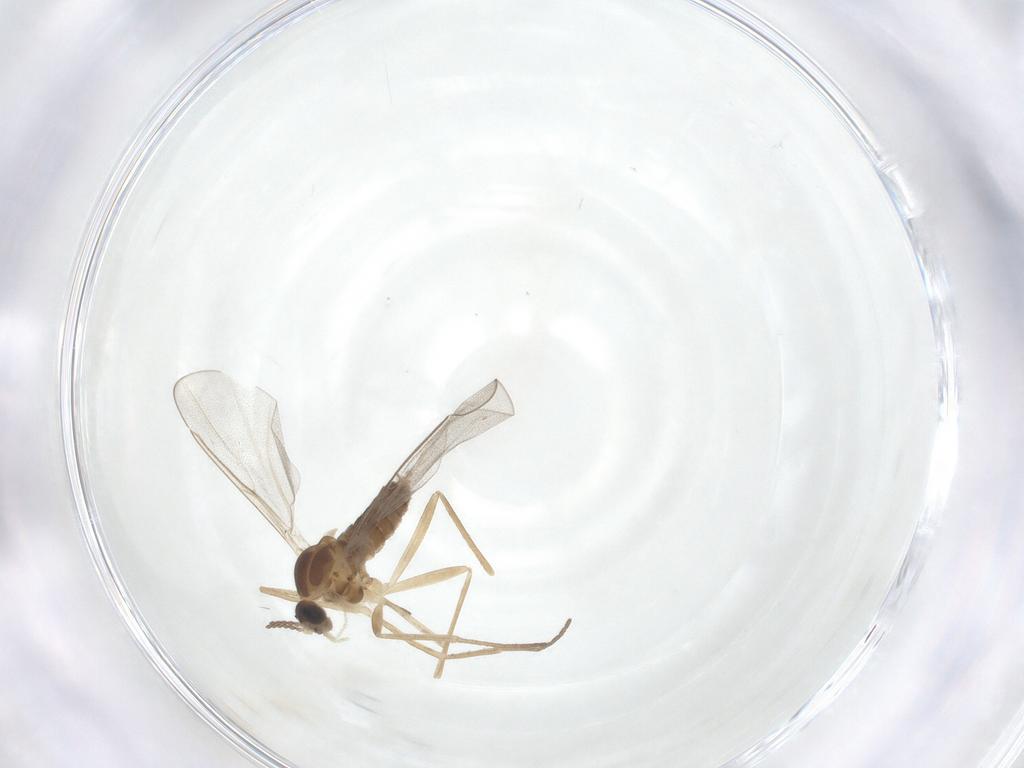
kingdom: Animalia
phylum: Arthropoda
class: Insecta
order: Diptera
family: Cecidomyiidae
